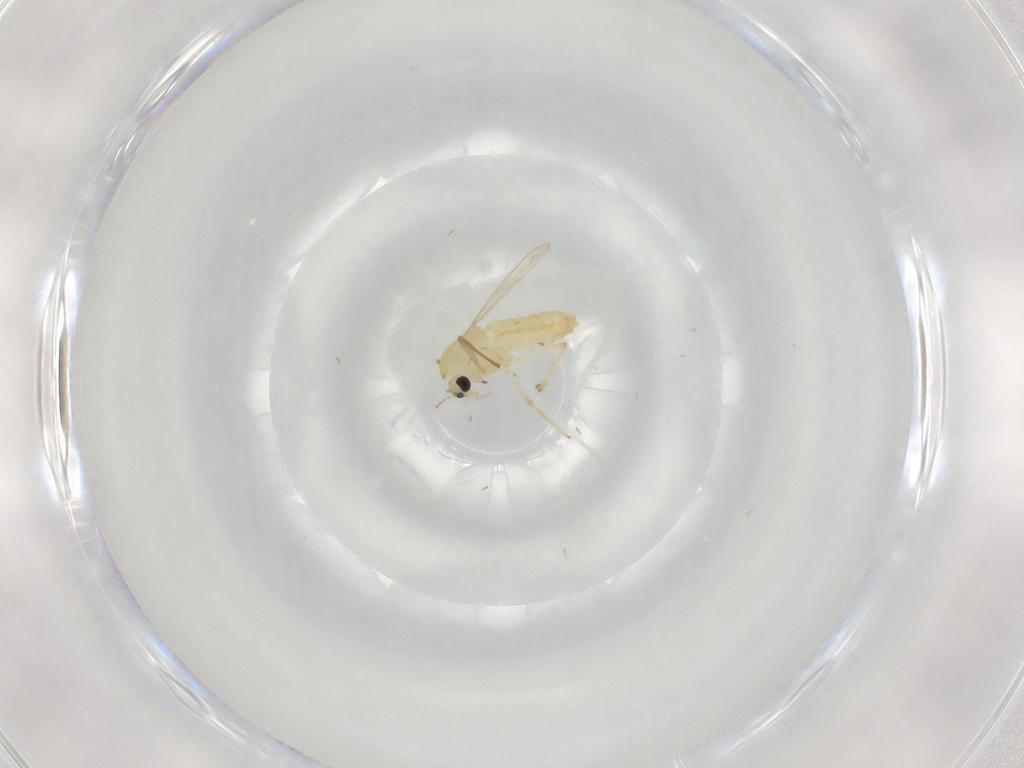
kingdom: Animalia
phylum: Arthropoda
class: Insecta
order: Diptera
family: Chironomidae
